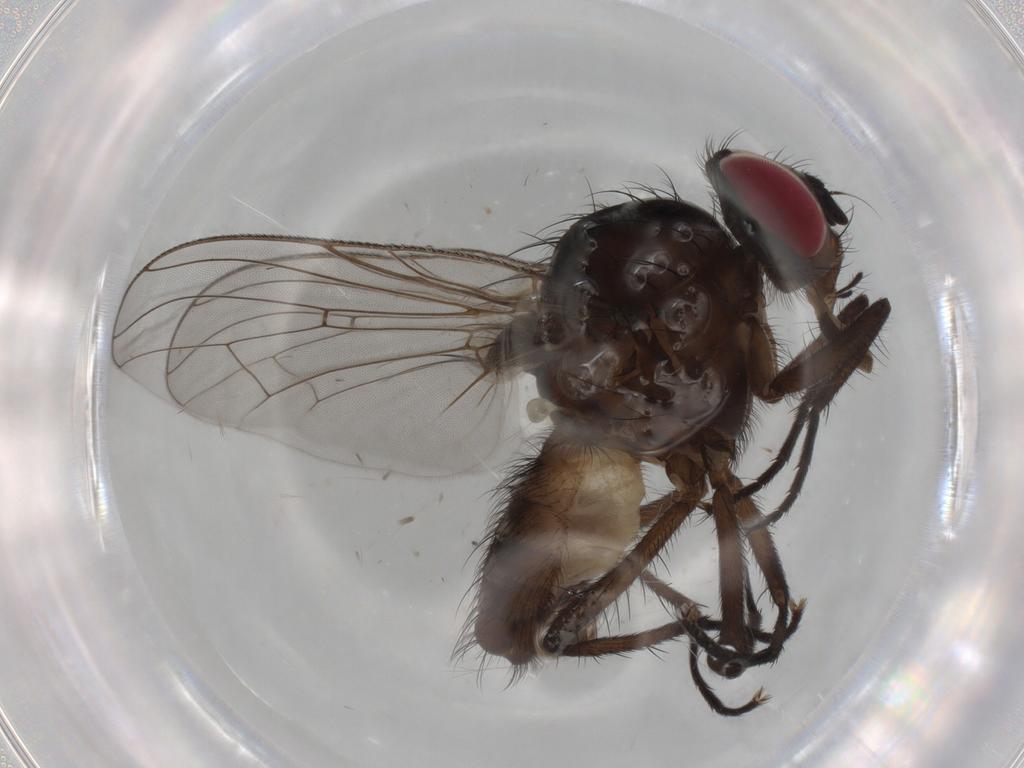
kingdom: Animalia
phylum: Arthropoda
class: Insecta
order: Diptera
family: Anthomyiidae
